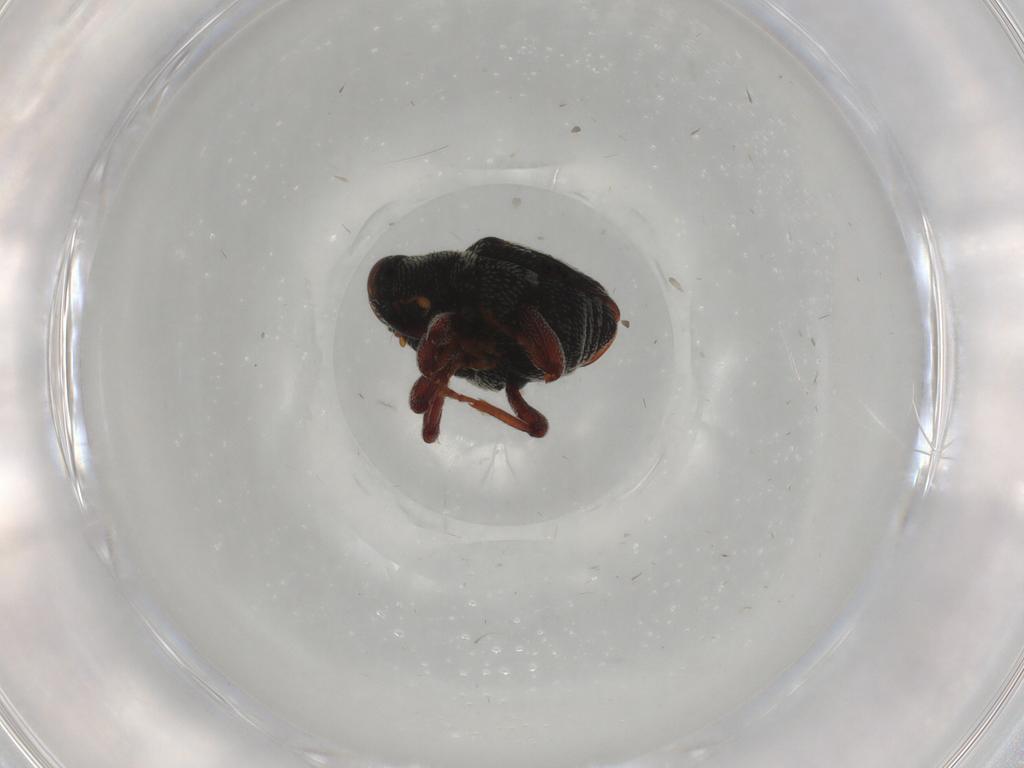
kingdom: Animalia
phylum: Arthropoda
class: Insecta
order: Coleoptera
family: Curculionidae
